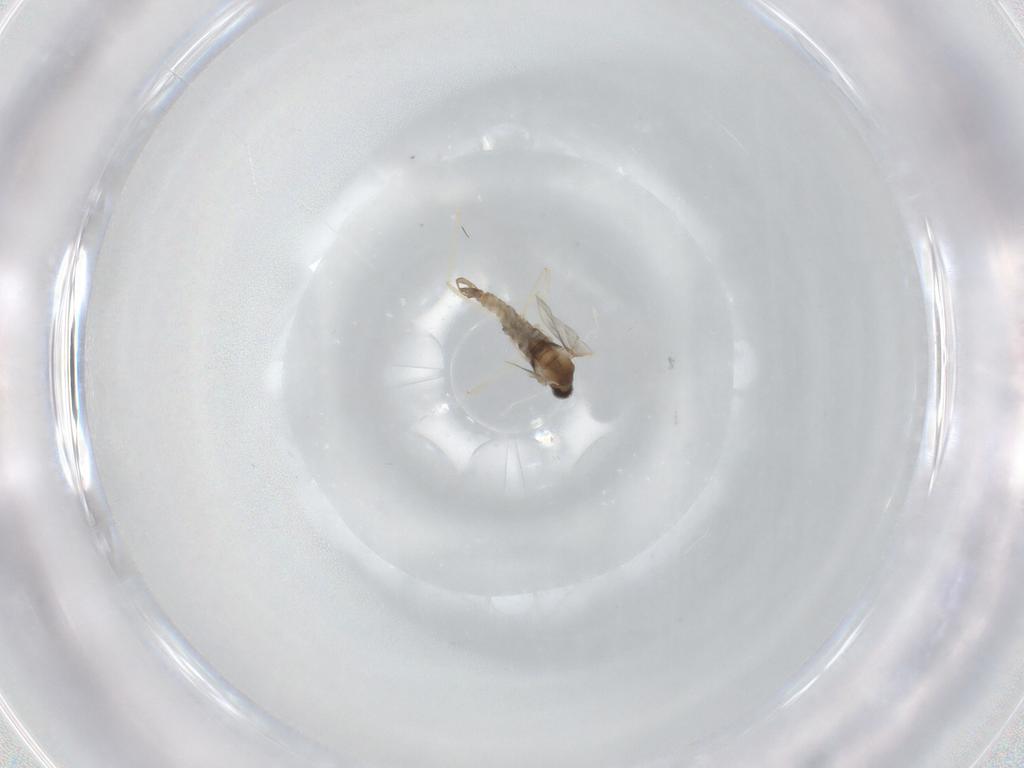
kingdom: Animalia
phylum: Arthropoda
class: Insecta
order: Diptera
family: Cecidomyiidae
